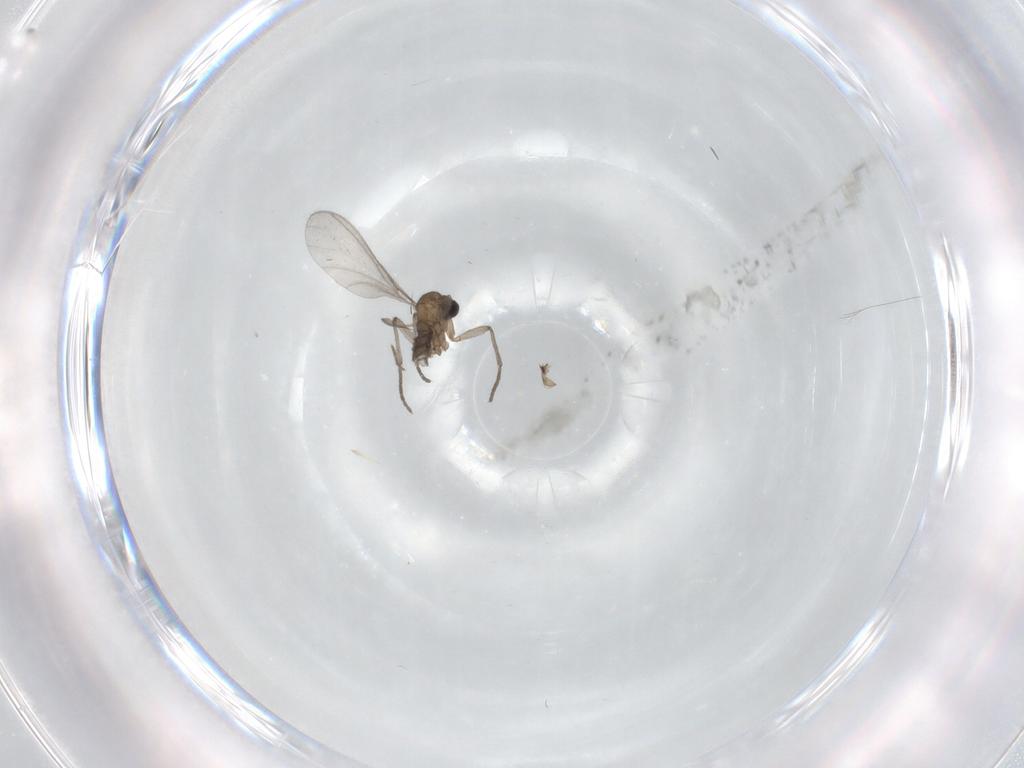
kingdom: Animalia
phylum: Arthropoda
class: Insecta
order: Diptera
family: Sciaridae
